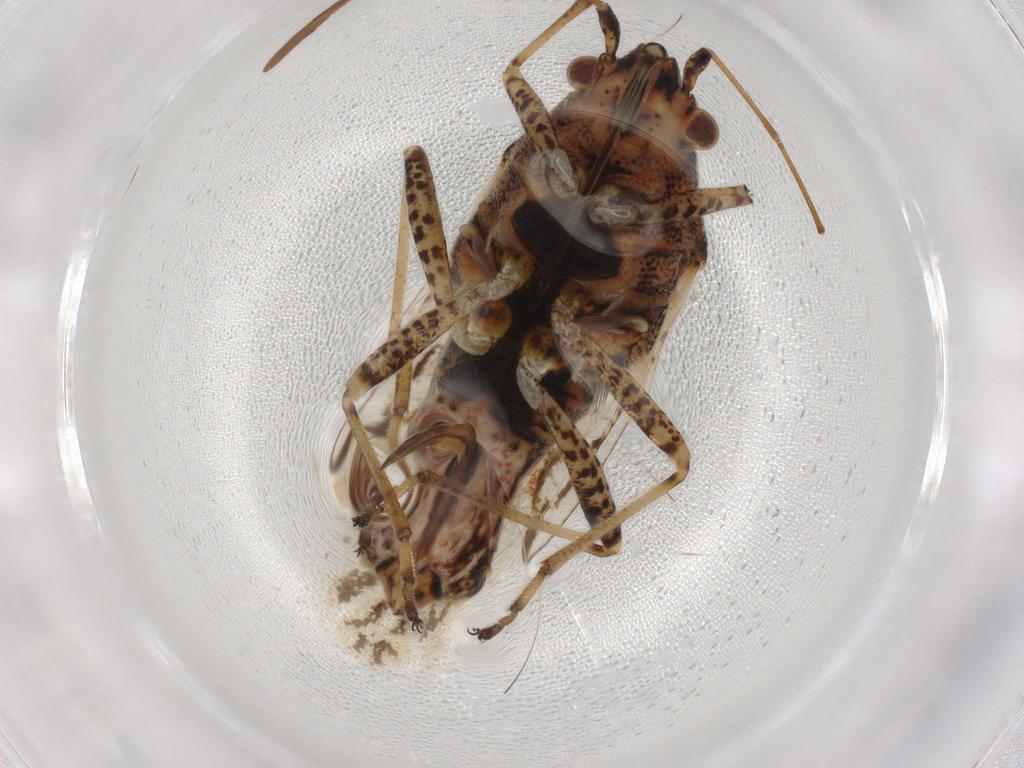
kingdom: Animalia
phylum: Arthropoda
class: Insecta
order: Hemiptera
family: Lygaeidae
